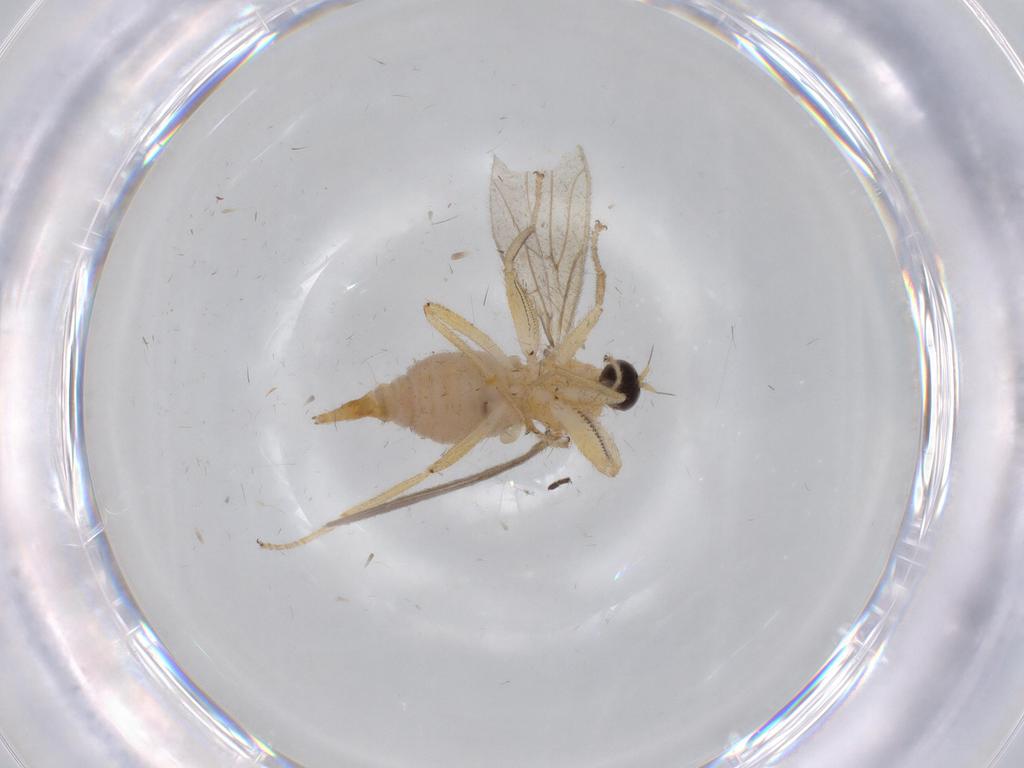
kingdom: Animalia
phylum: Arthropoda
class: Insecta
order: Diptera
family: Hybotidae
